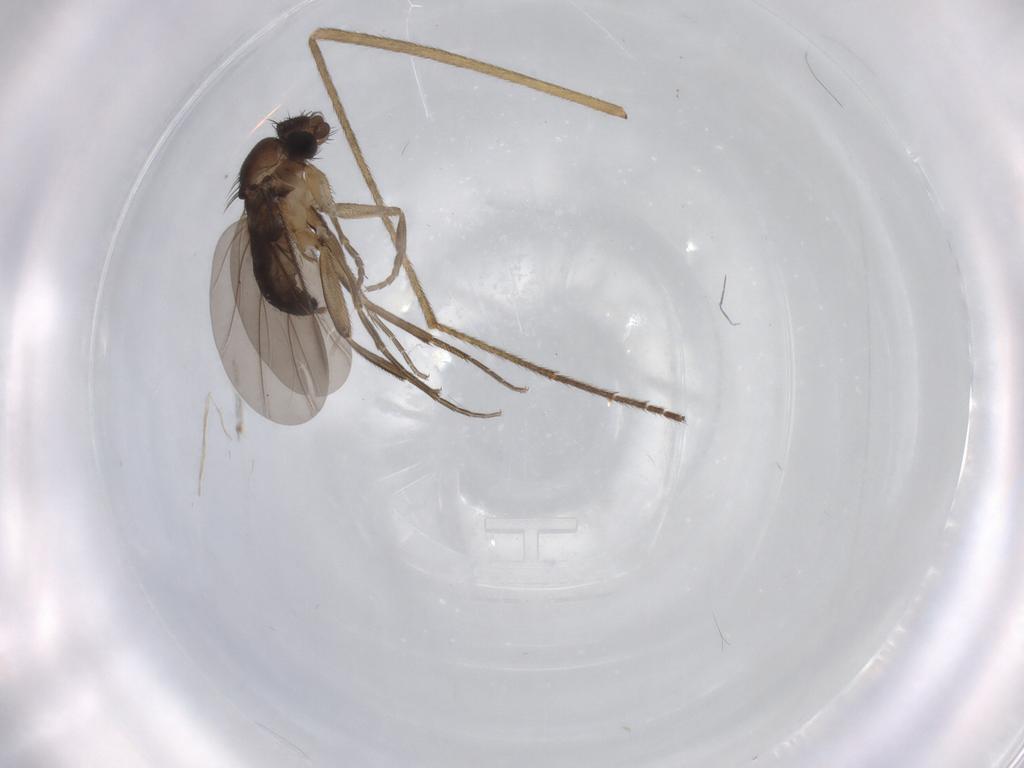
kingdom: Animalia
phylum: Arthropoda
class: Insecta
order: Diptera
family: Limoniidae
